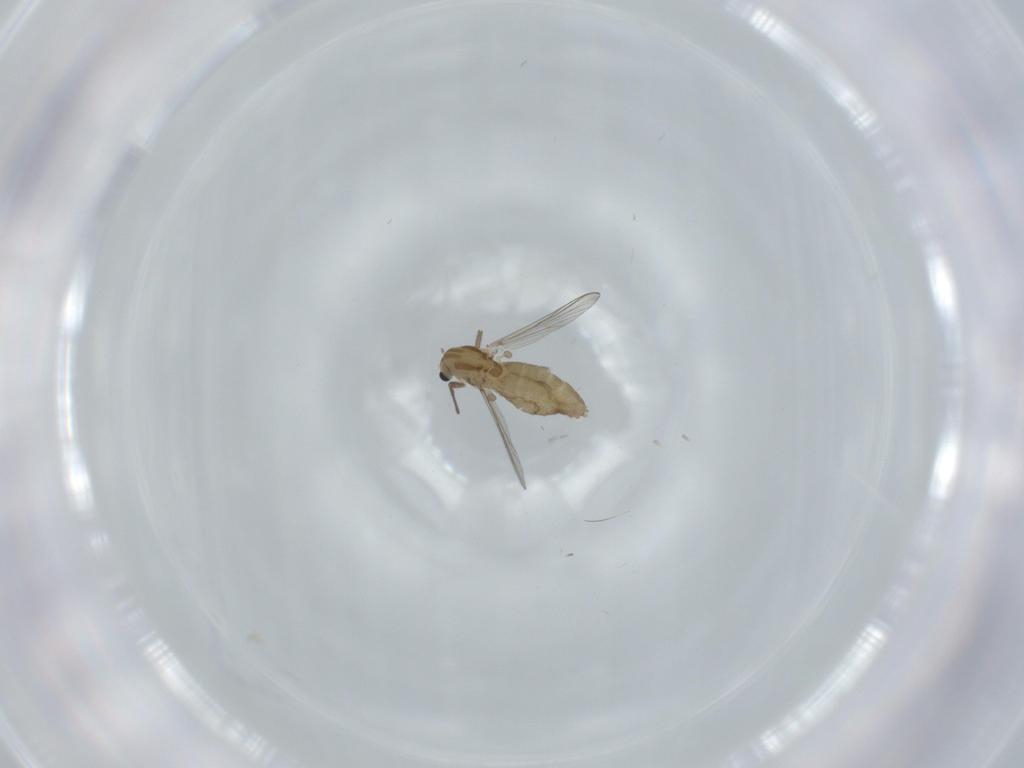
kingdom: Animalia
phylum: Arthropoda
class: Insecta
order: Diptera
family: Chironomidae
